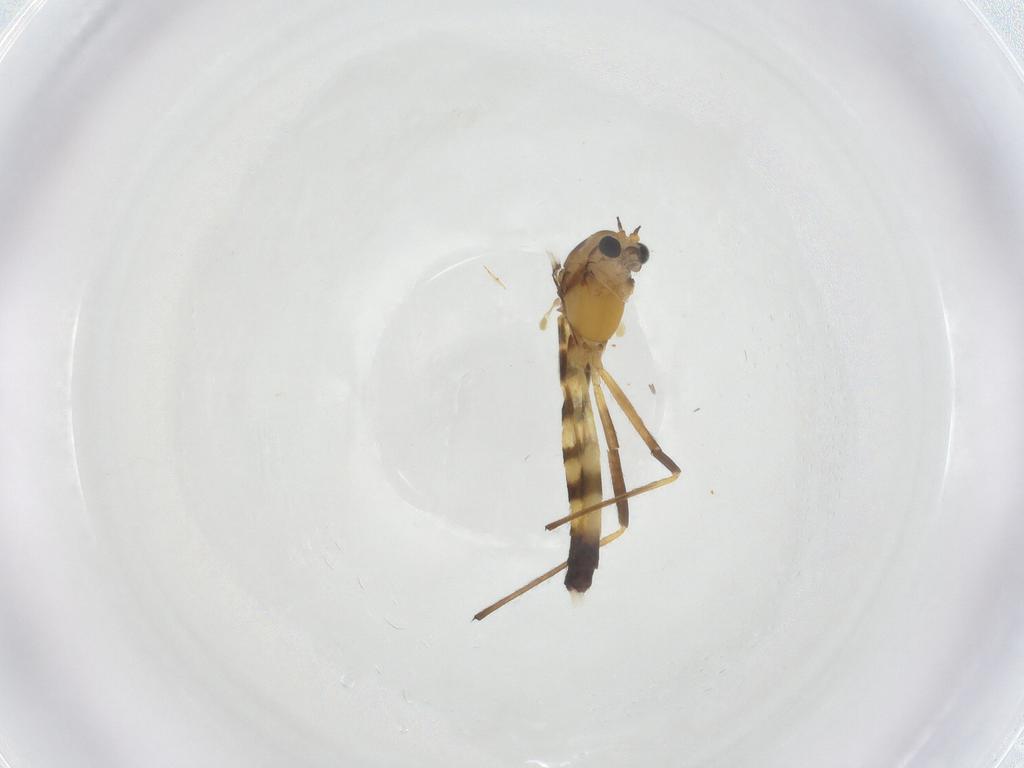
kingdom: Animalia
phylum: Arthropoda
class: Insecta
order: Diptera
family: Chironomidae
